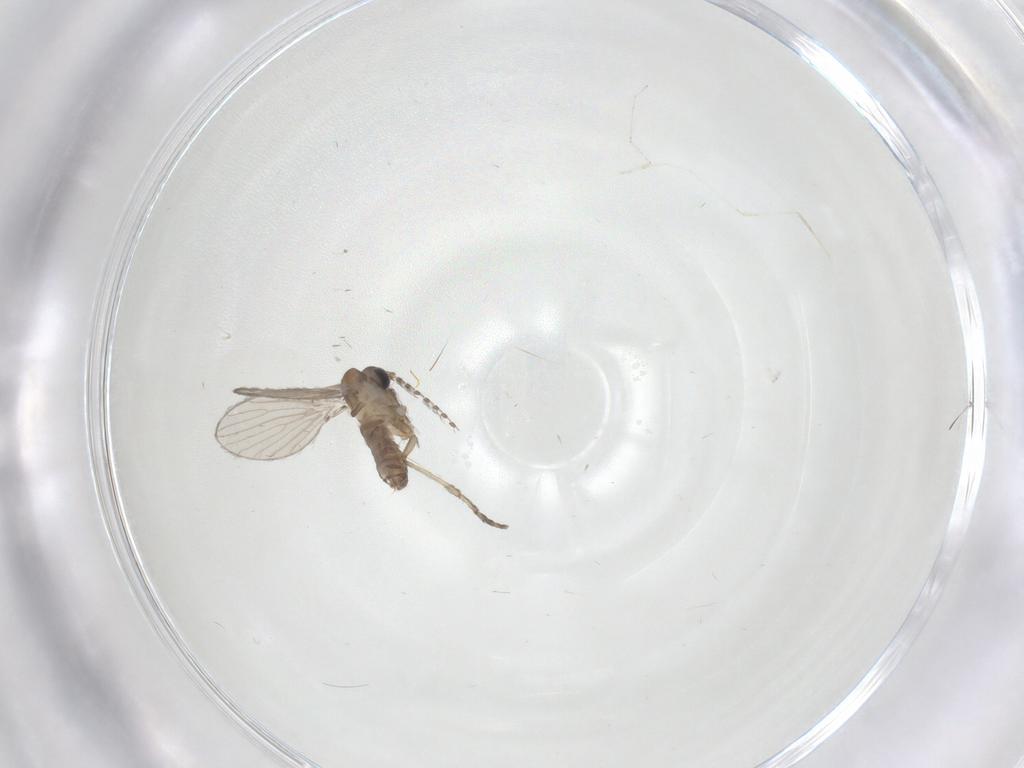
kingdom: Animalia
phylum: Arthropoda
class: Insecta
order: Diptera
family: Psychodidae
